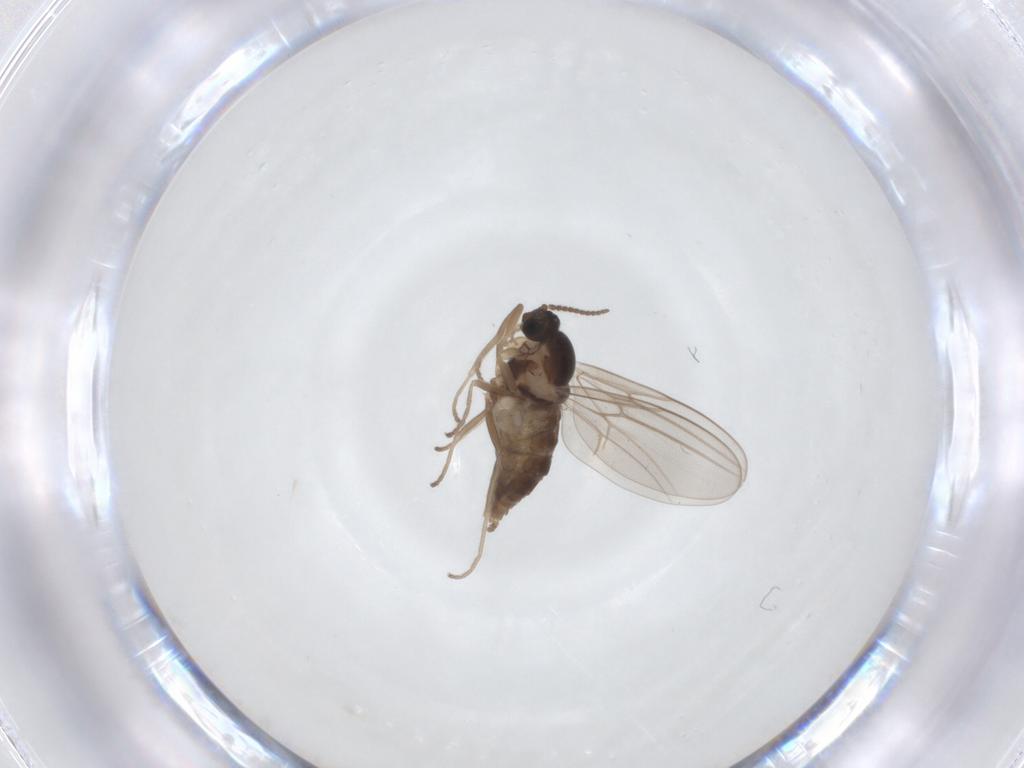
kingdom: Animalia
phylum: Arthropoda
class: Insecta
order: Diptera
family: Cecidomyiidae
